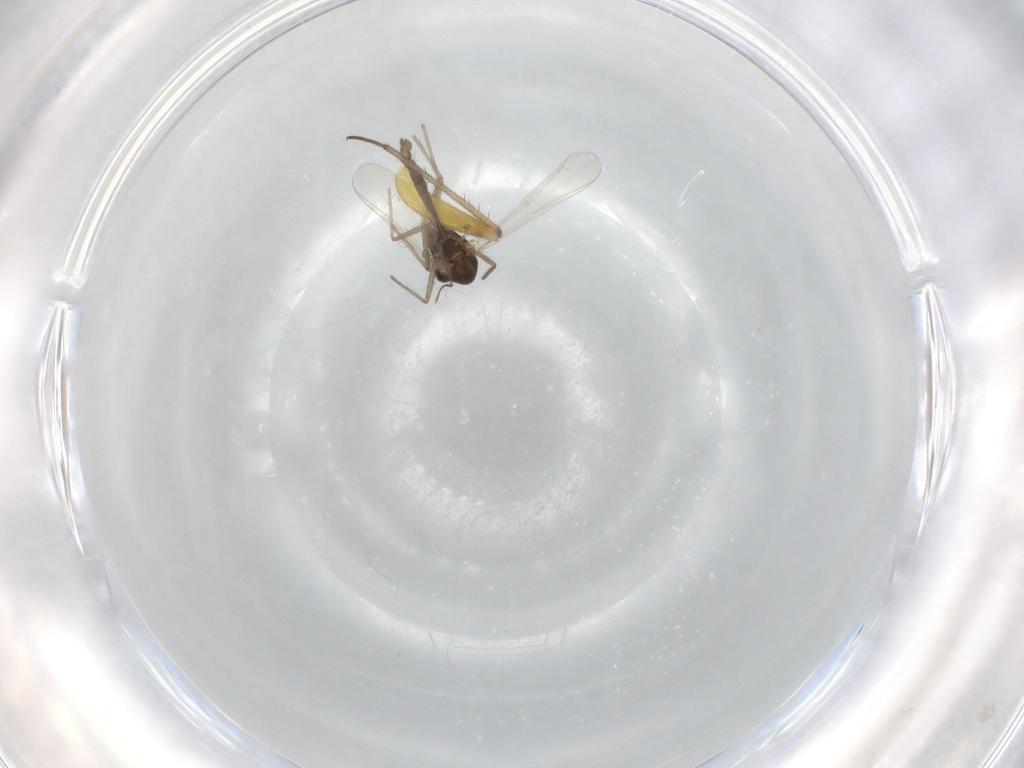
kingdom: Animalia
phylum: Arthropoda
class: Insecta
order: Diptera
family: Chironomidae
